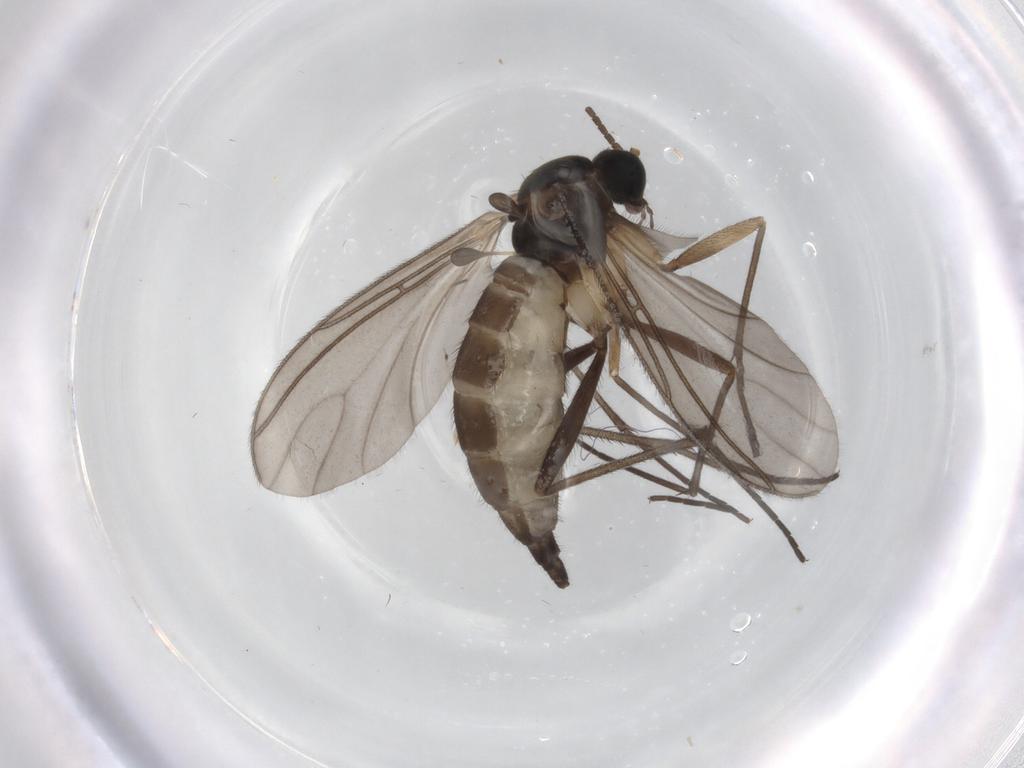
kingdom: Animalia
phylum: Arthropoda
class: Insecta
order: Diptera
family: Sciaridae
